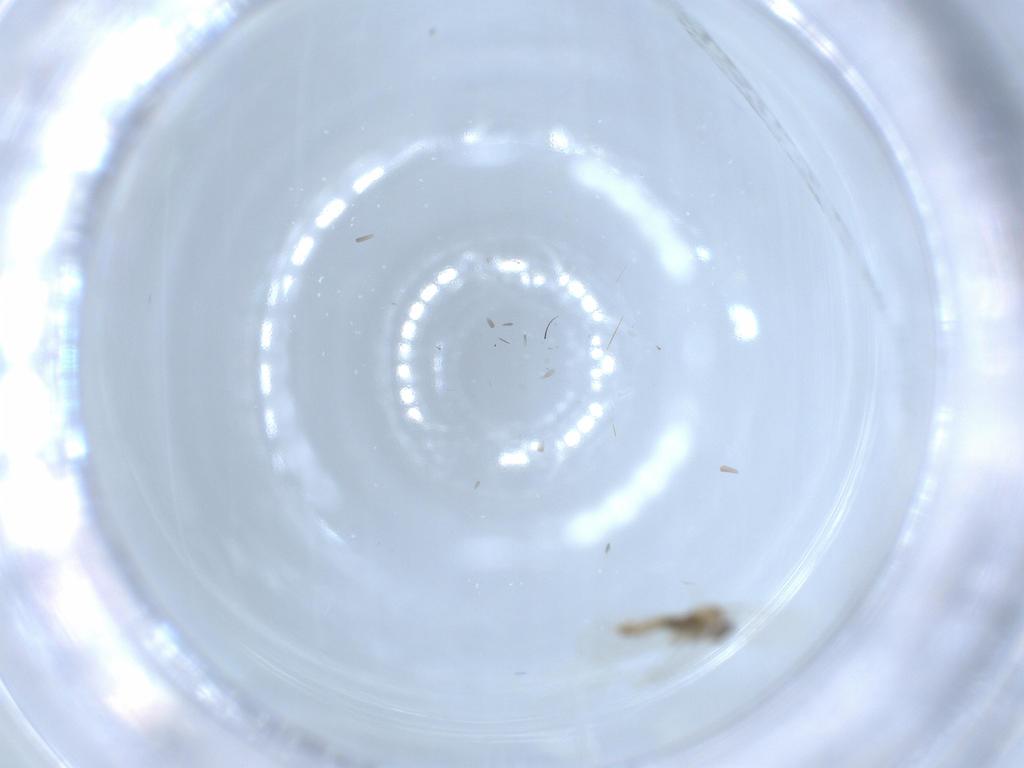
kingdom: Animalia
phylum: Arthropoda
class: Insecta
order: Diptera
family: Cecidomyiidae
